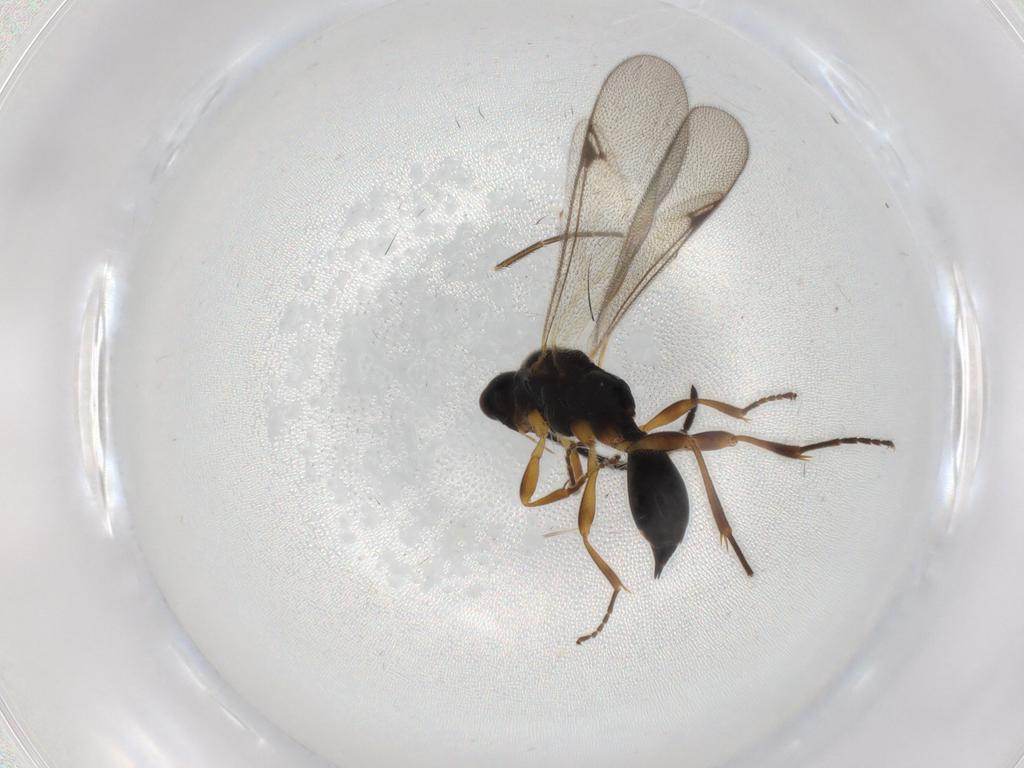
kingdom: Animalia
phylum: Arthropoda
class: Insecta
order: Hymenoptera
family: Proctotrupidae
